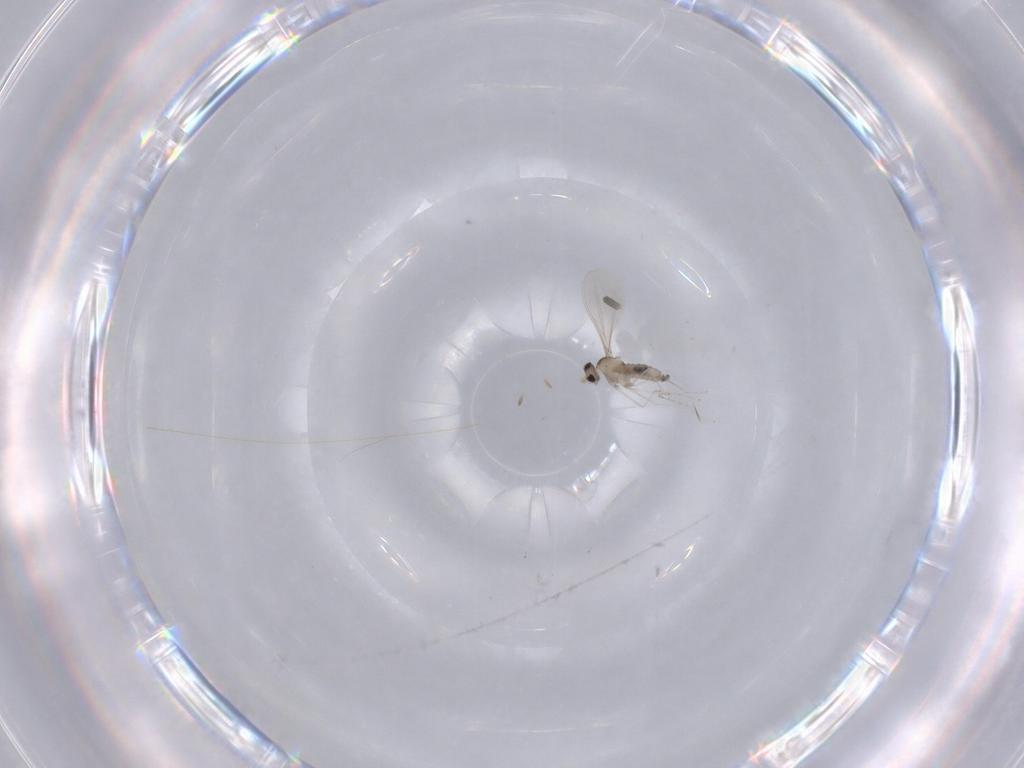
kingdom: Animalia
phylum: Arthropoda
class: Insecta
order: Diptera
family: Cecidomyiidae
